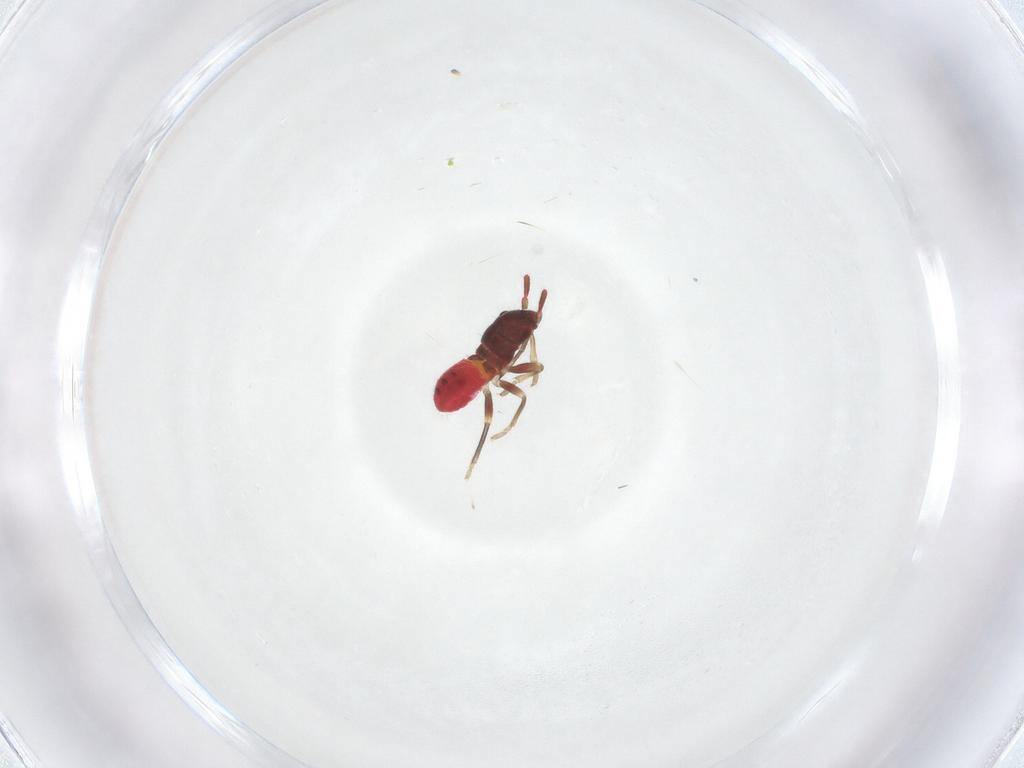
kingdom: Animalia
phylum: Arthropoda
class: Insecta
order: Hemiptera
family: Rhyparochromidae
